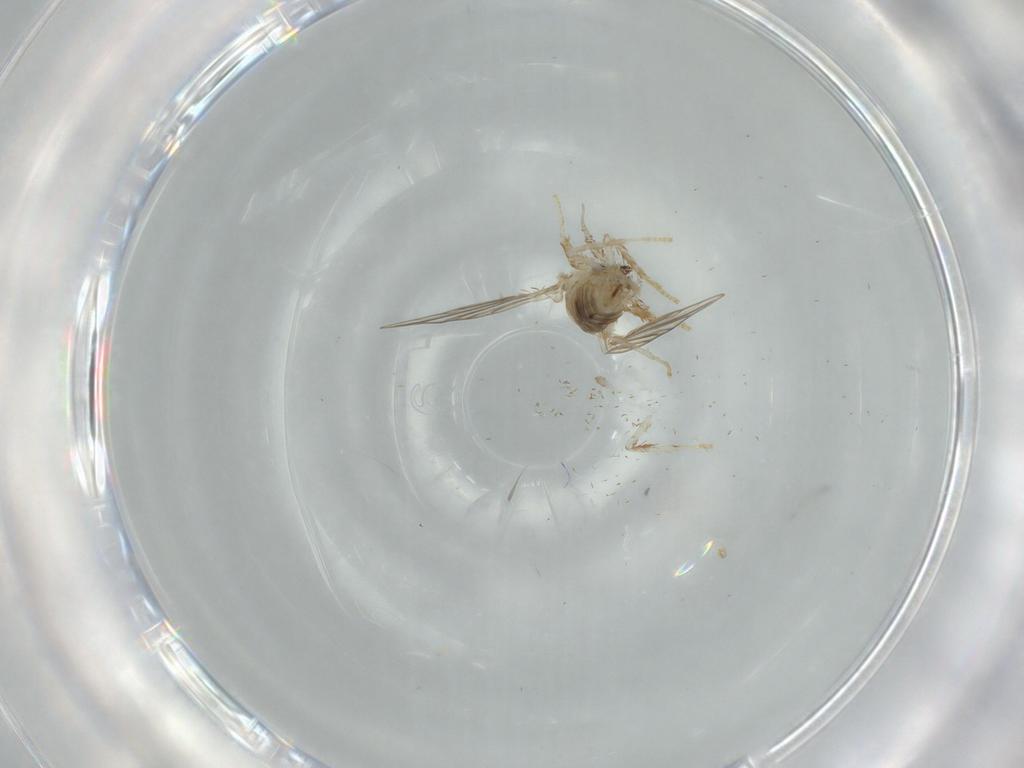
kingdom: Animalia
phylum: Arthropoda
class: Insecta
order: Diptera
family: Psychodidae
